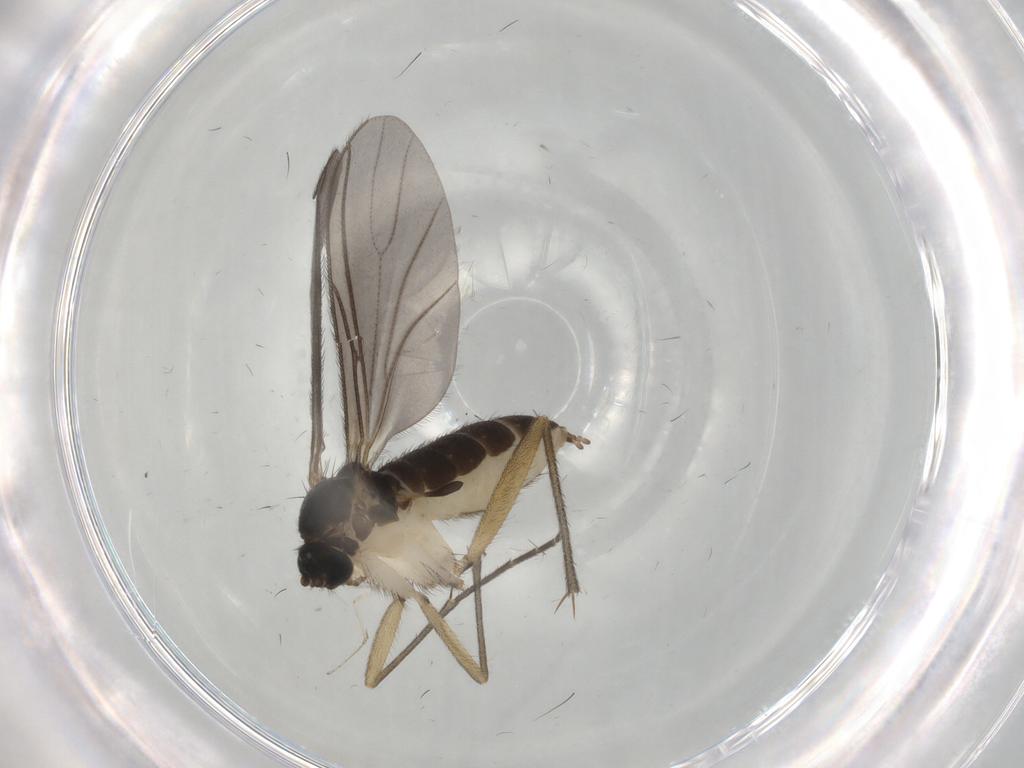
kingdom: Animalia
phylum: Arthropoda
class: Insecta
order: Diptera
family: Sciaridae
